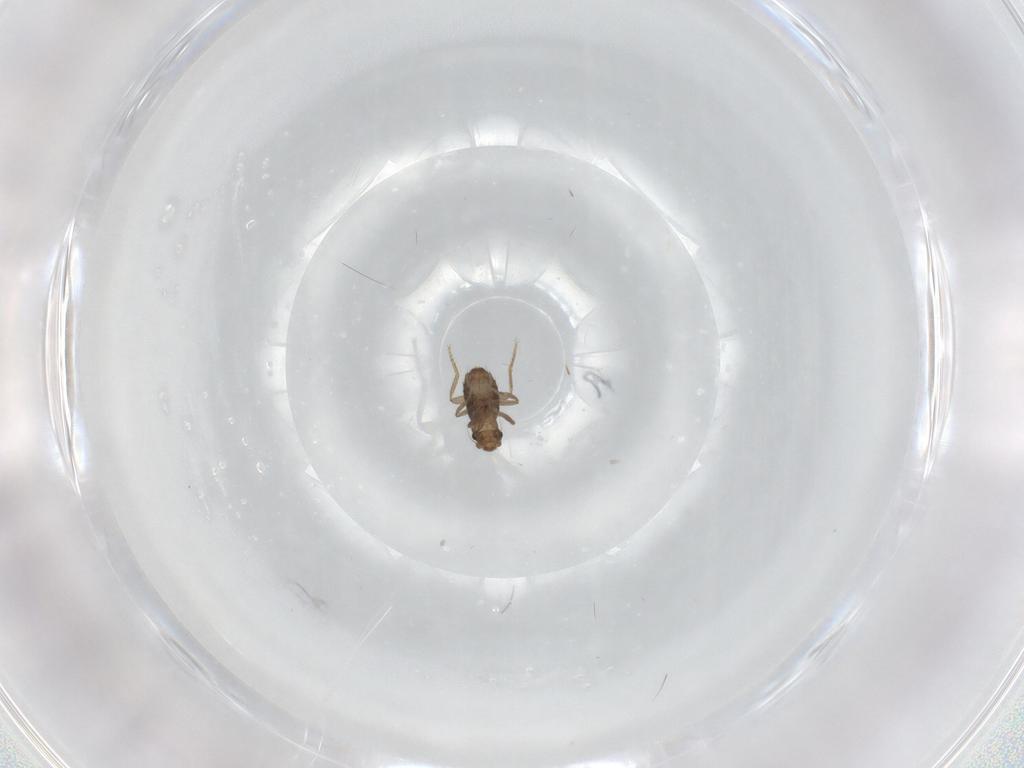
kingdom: Animalia
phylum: Arthropoda
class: Insecta
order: Diptera
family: Phoridae
